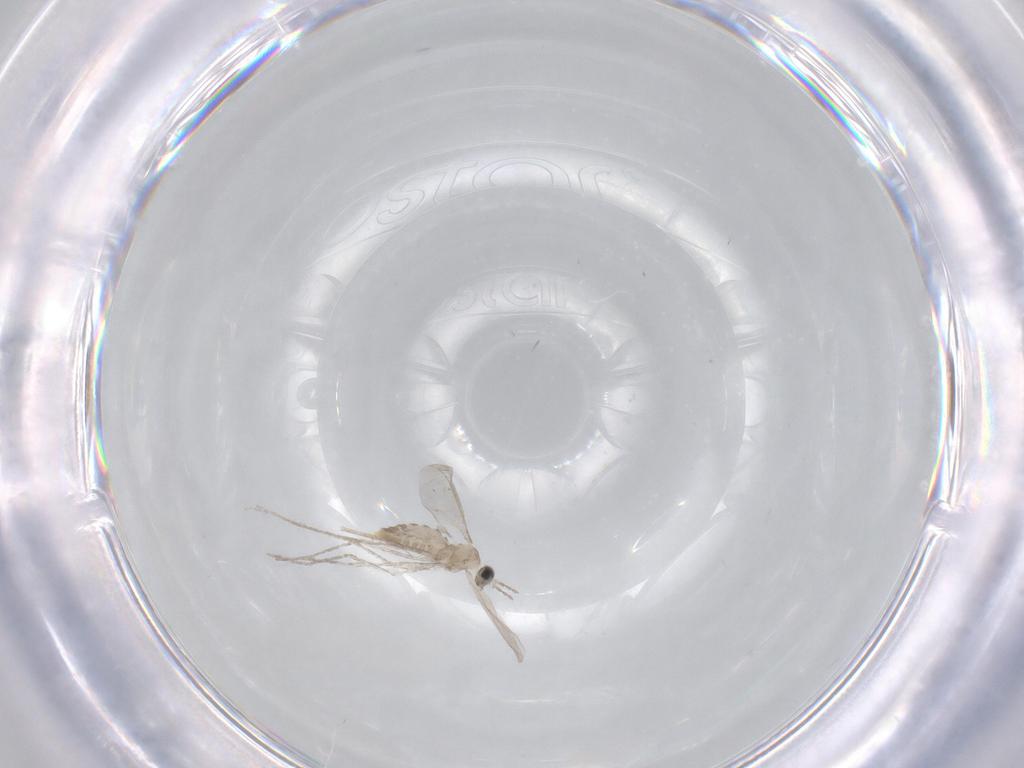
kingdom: Animalia
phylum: Arthropoda
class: Insecta
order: Diptera
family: Cecidomyiidae
